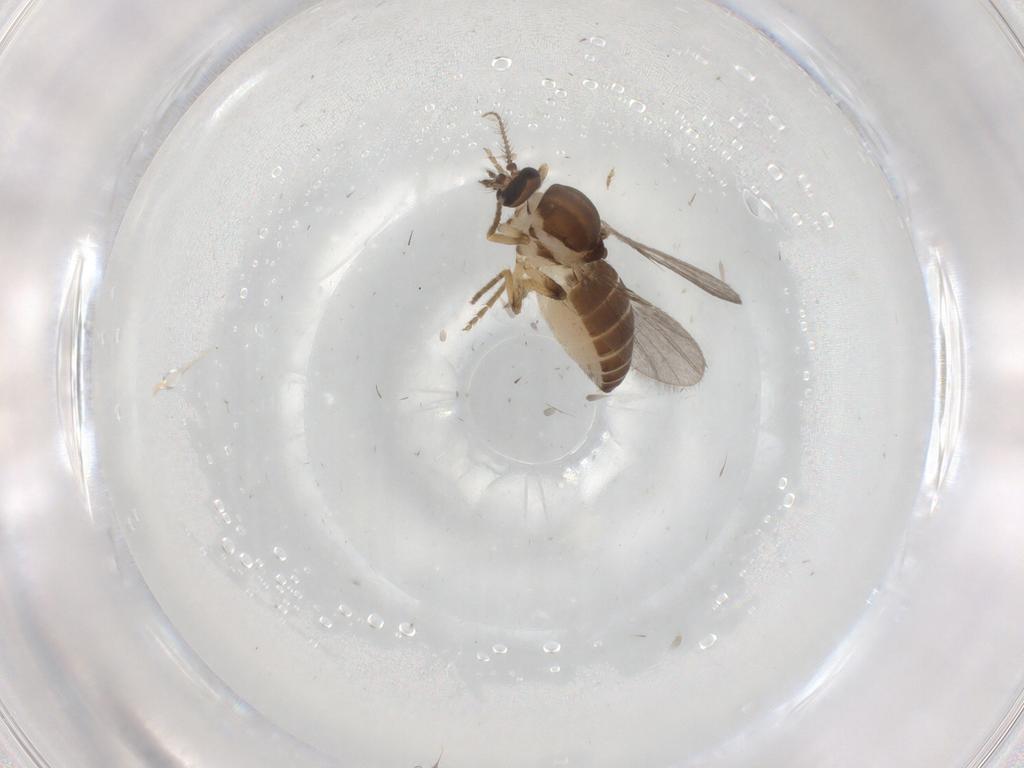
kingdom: Animalia
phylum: Arthropoda
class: Insecta
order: Diptera
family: Ceratopogonidae
